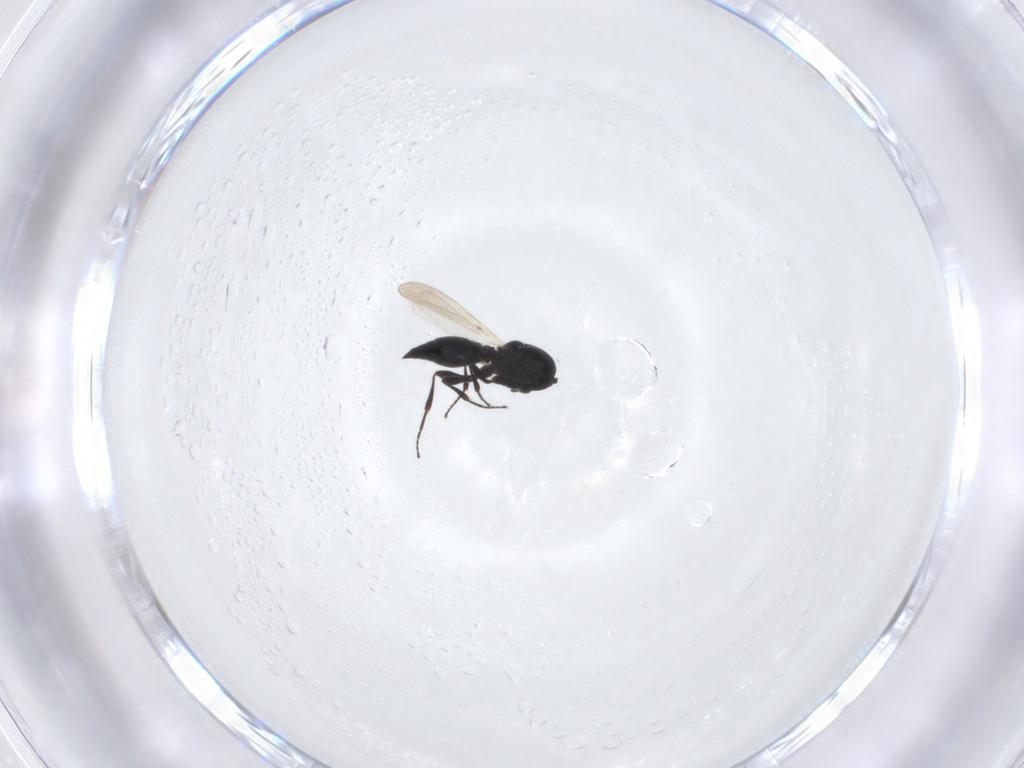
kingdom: Animalia
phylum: Arthropoda
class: Insecta
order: Hymenoptera
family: Platygastridae
